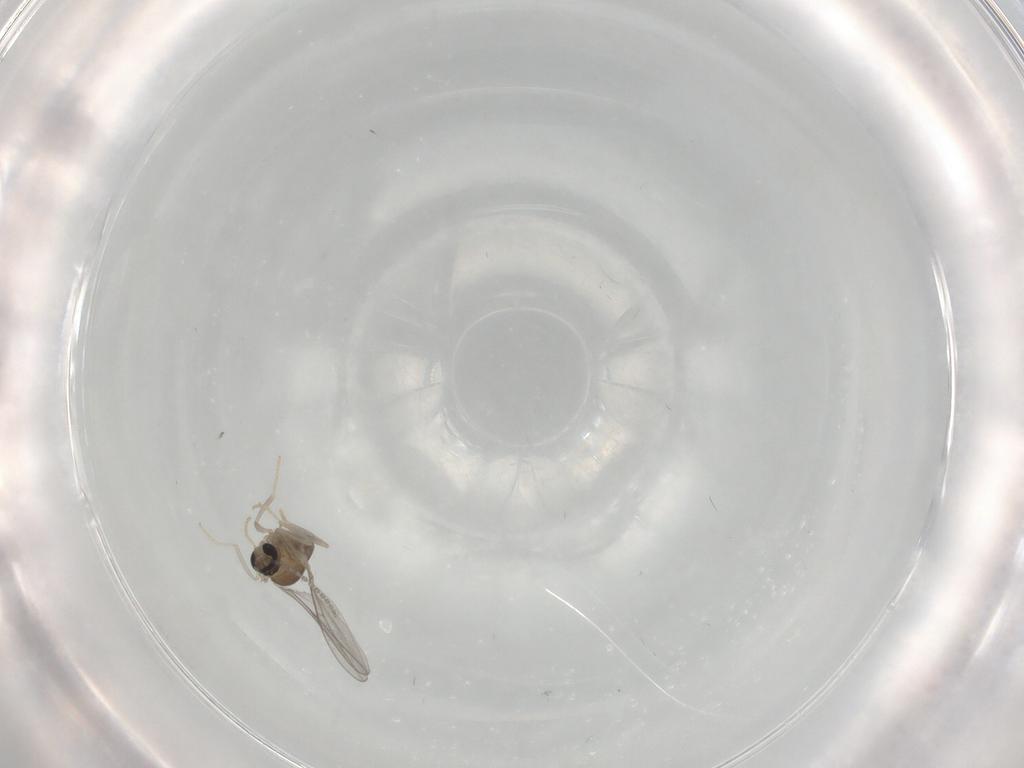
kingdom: Animalia
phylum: Arthropoda
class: Insecta
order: Diptera
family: Cecidomyiidae
